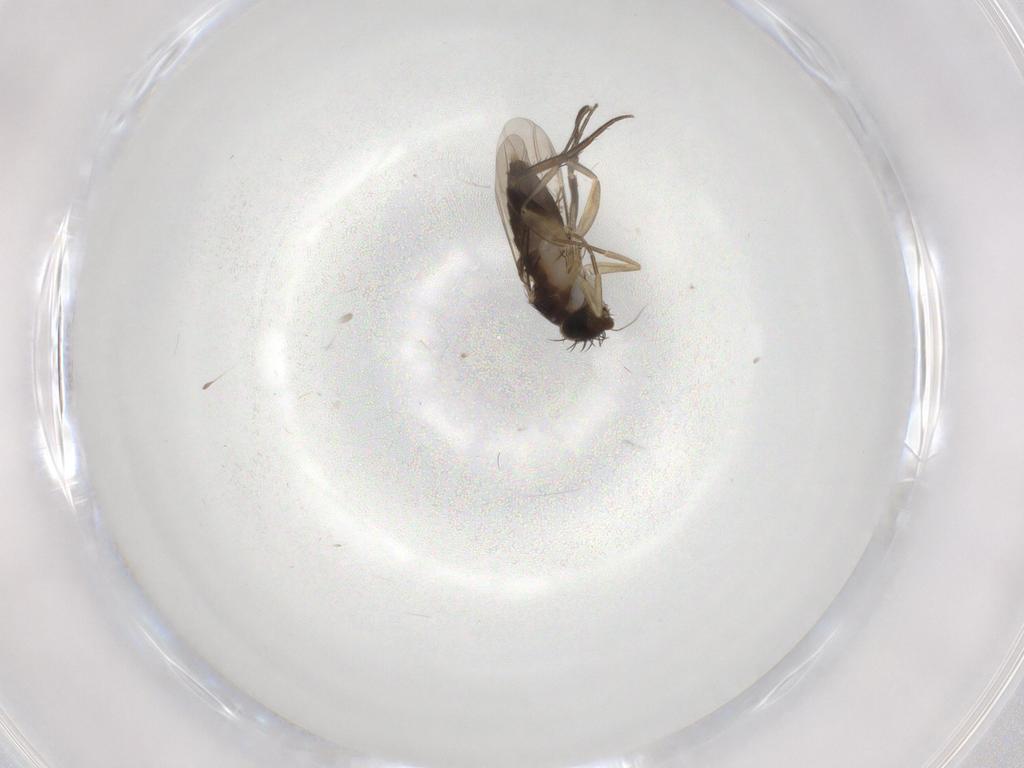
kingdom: Animalia
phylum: Arthropoda
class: Insecta
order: Diptera
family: Phoridae
